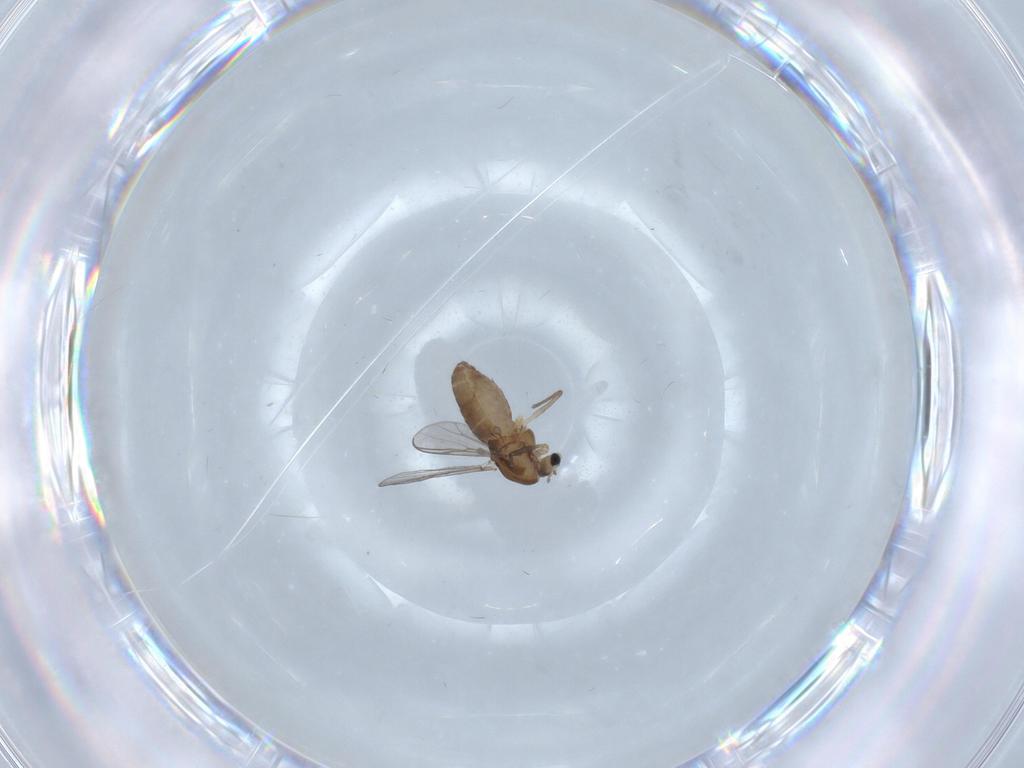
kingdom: Animalia
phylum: Arthropoda
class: Insecta
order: Diptera
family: Chironomidae
